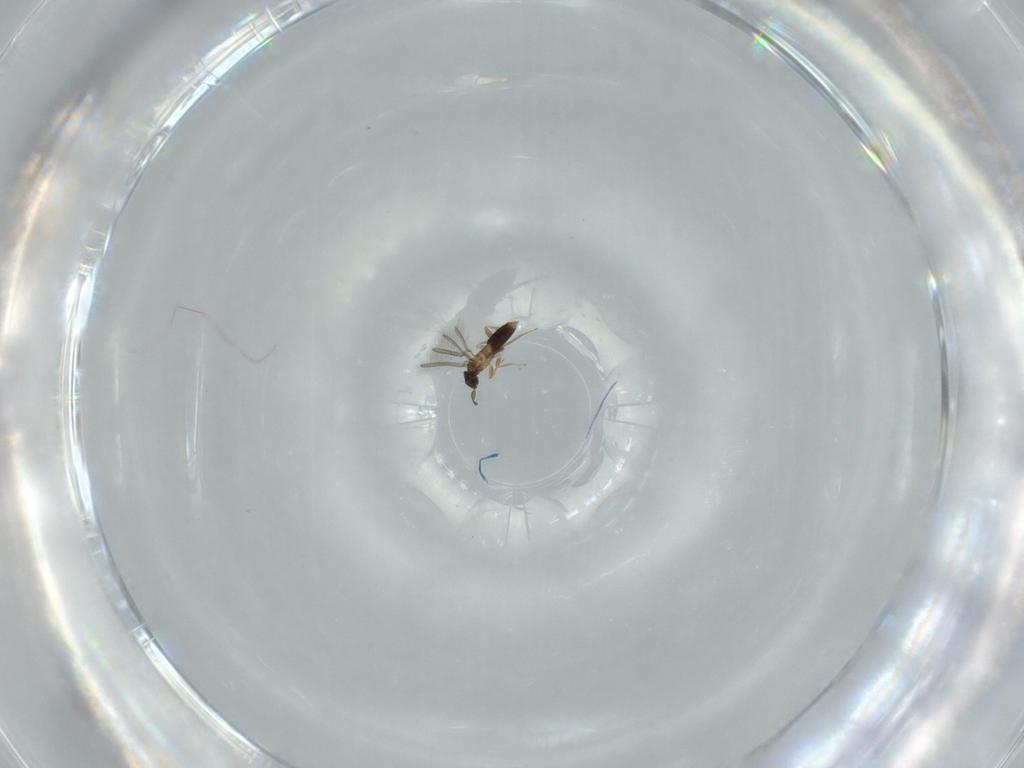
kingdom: Animalia
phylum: Arthropoda
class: Insecta
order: Hymenoptera
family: Mymaridae
